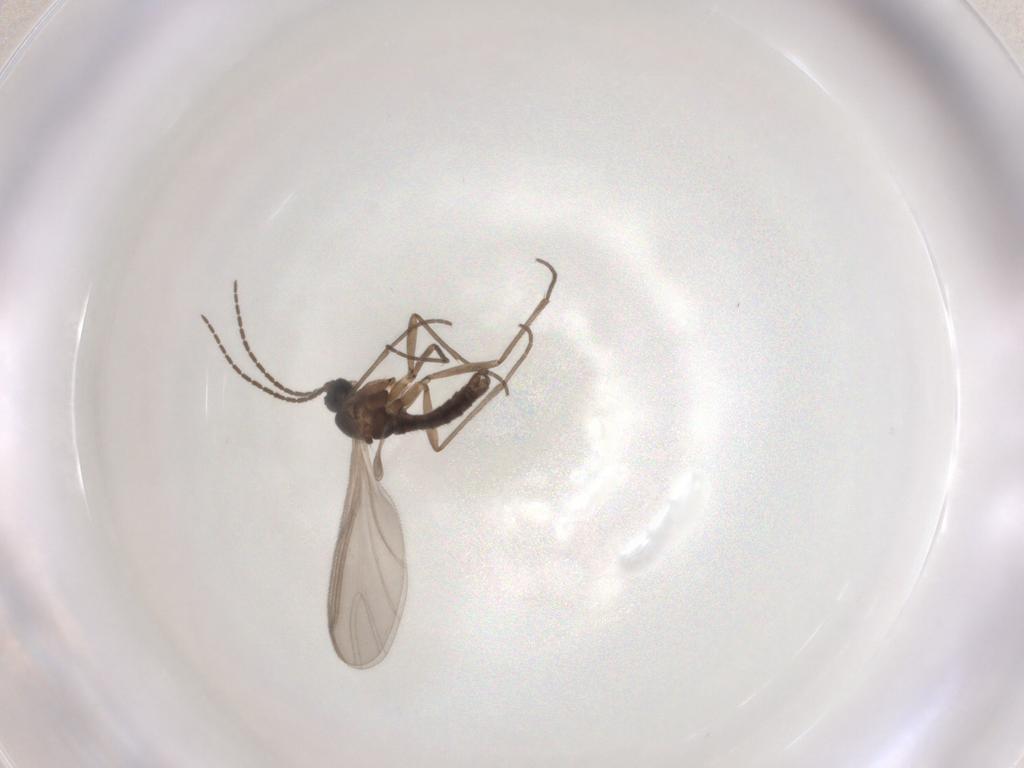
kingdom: Animalia
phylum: Arthropoda
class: Insecta
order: Diptera
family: Sciaridae
